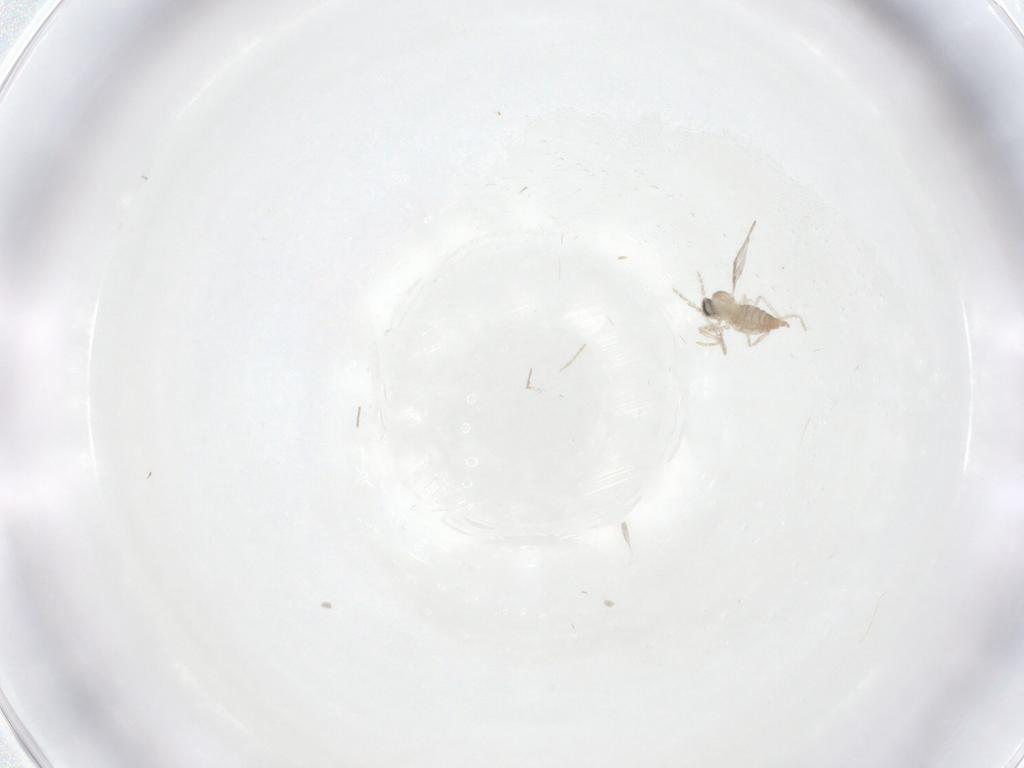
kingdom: Animalia
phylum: Arthropoda
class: Insecta
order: Diptera
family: Cecidomyiidae
